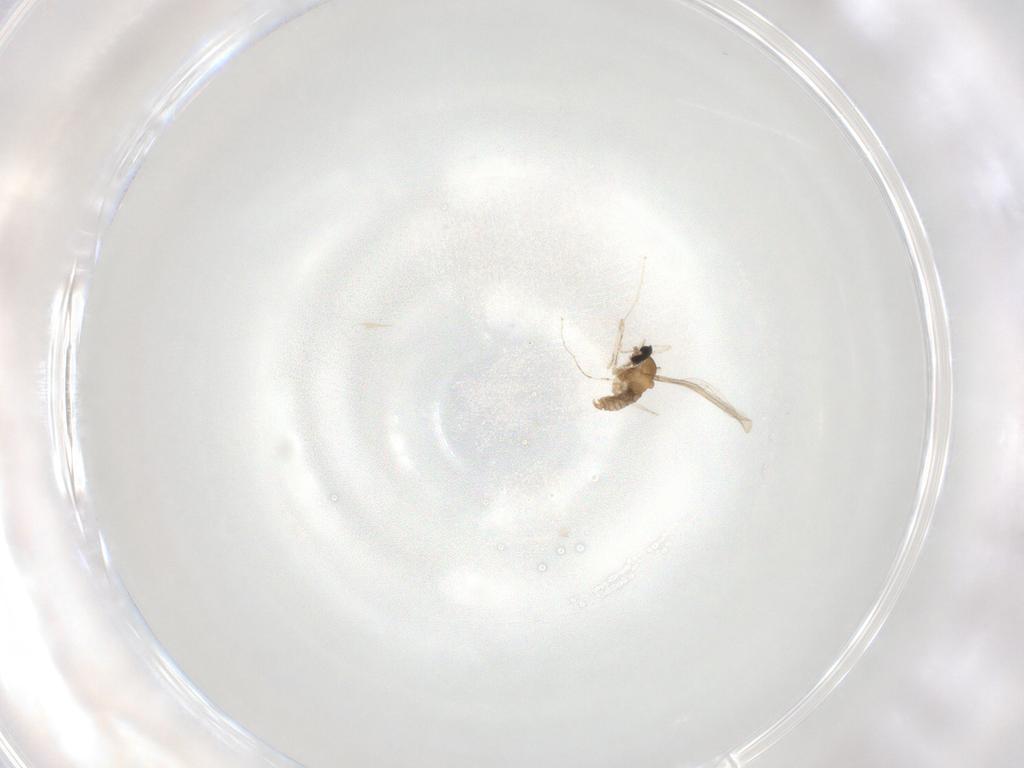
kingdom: Animalia
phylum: Arthropoda
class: Insecta
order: Diptera
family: Cecidomyiidae
